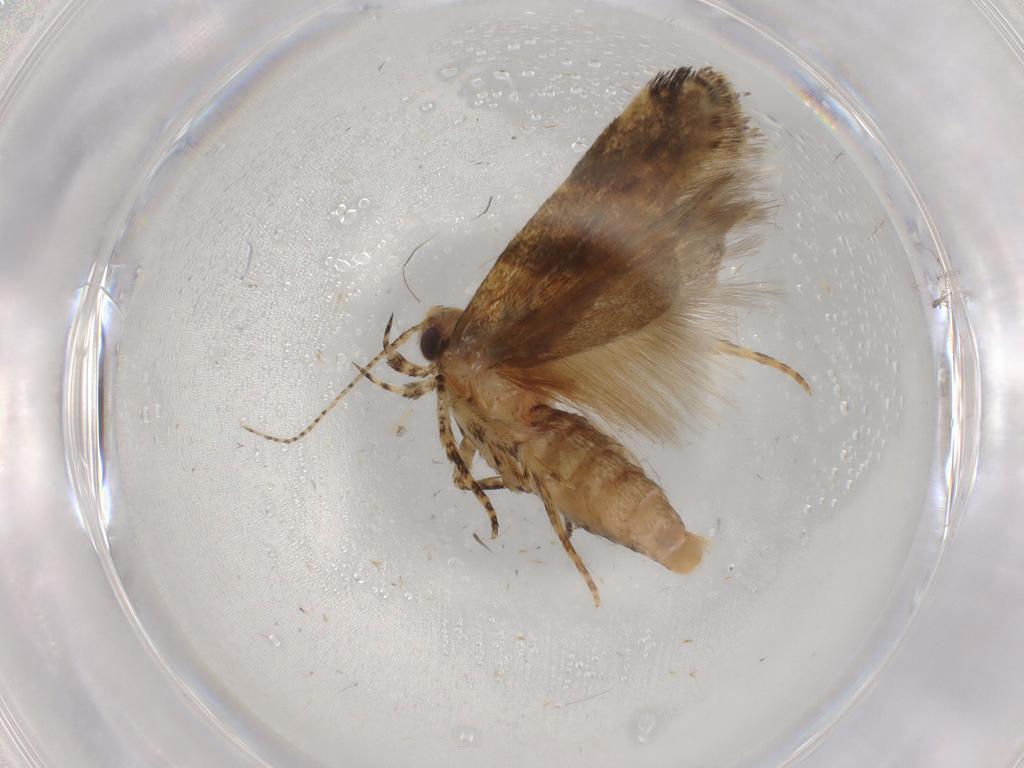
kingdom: Animalia
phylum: Arthropoda
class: Insecta
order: Lepidoptera
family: Gelechiidae
